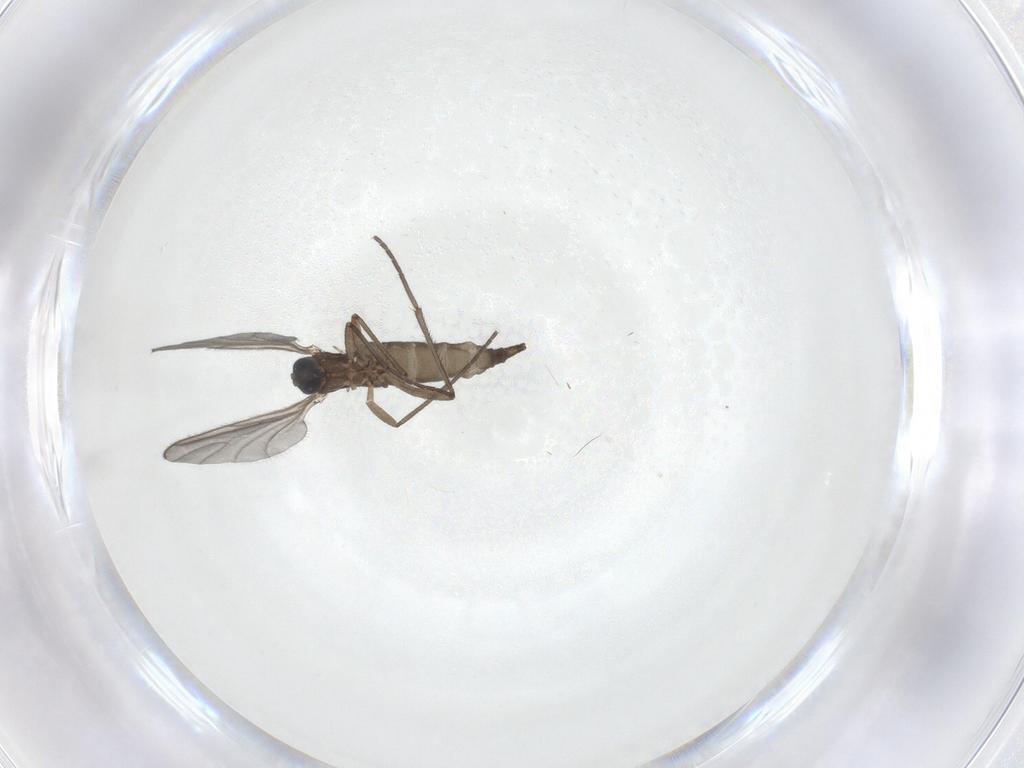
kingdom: Animalia
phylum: Arthropoda
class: Insecta
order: Diptera
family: Sciaridae
